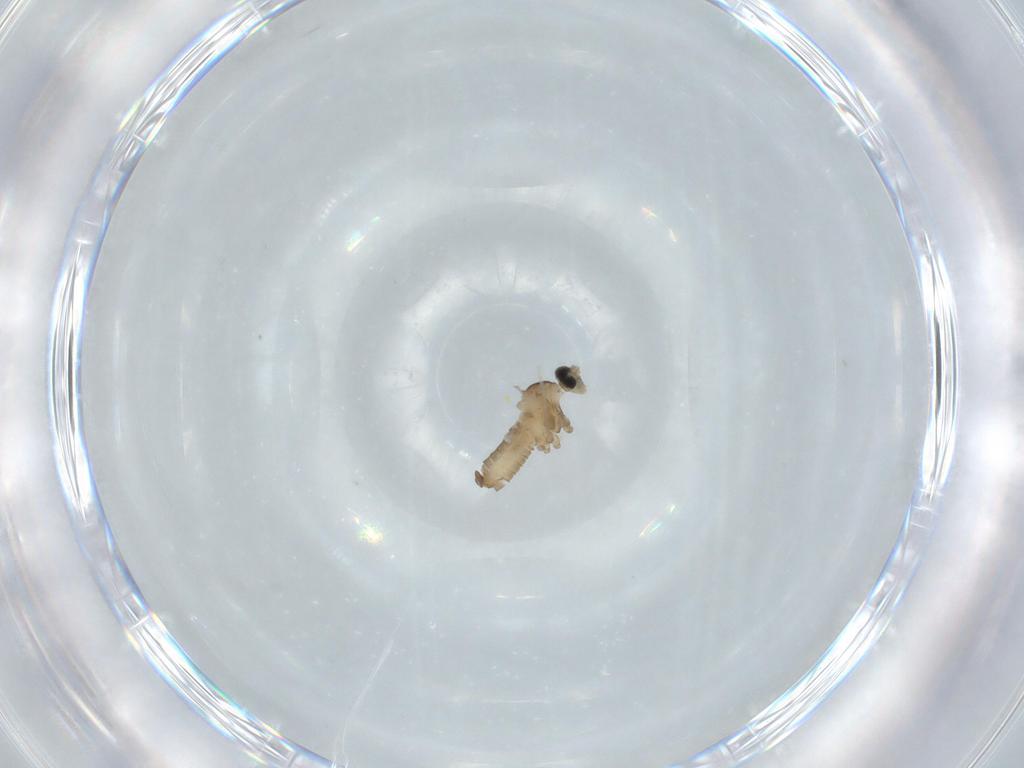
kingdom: Animalia
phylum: Arthropoda
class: Insecta
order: Diptera
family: Cecidomyiidae
